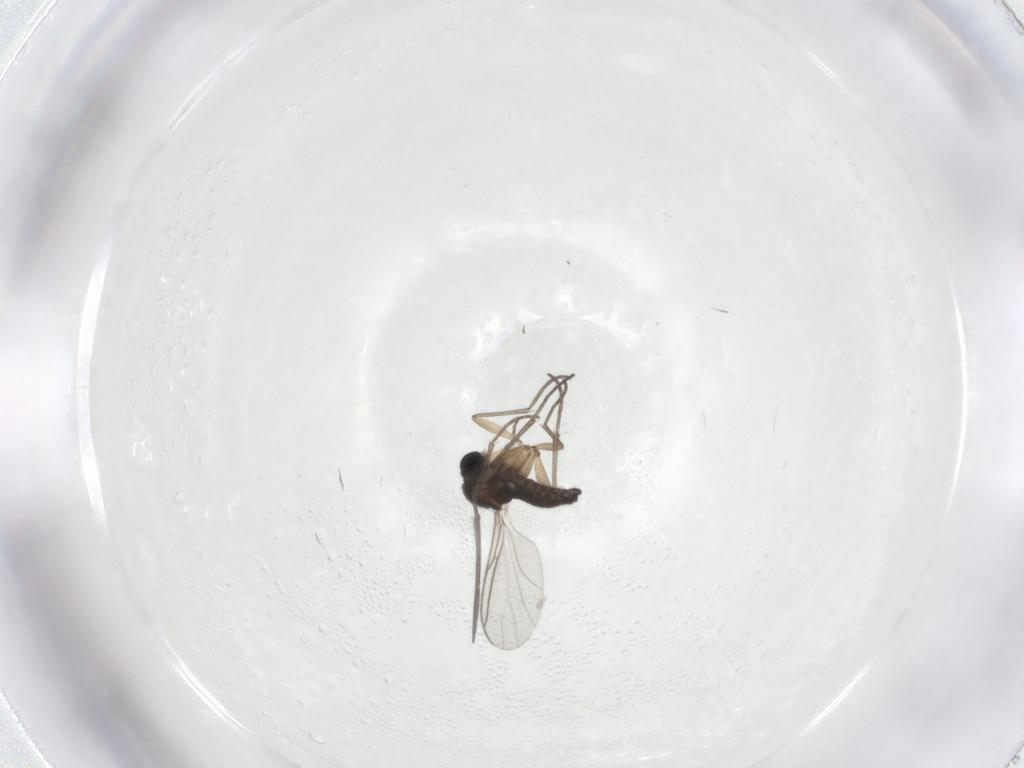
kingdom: Animalia
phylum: Arthropoda
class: Insecta
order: Diptera
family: Sciaridae
